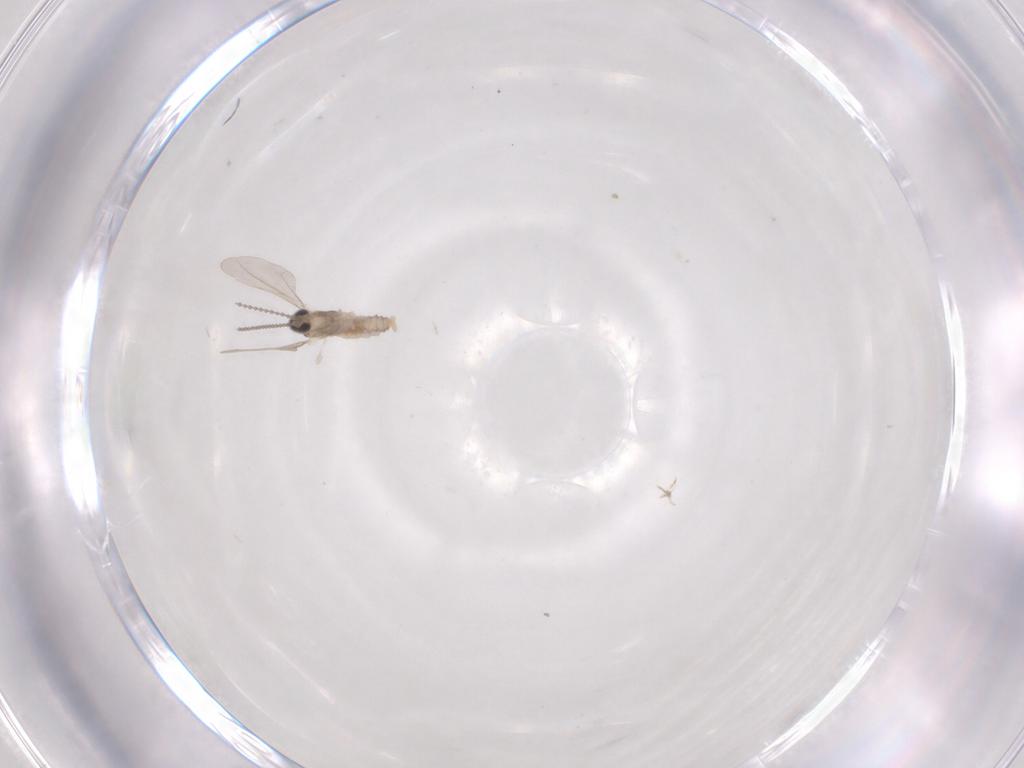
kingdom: Animalia
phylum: Arthropoda
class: Insecta
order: Diptera
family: Cecidomyiidae
